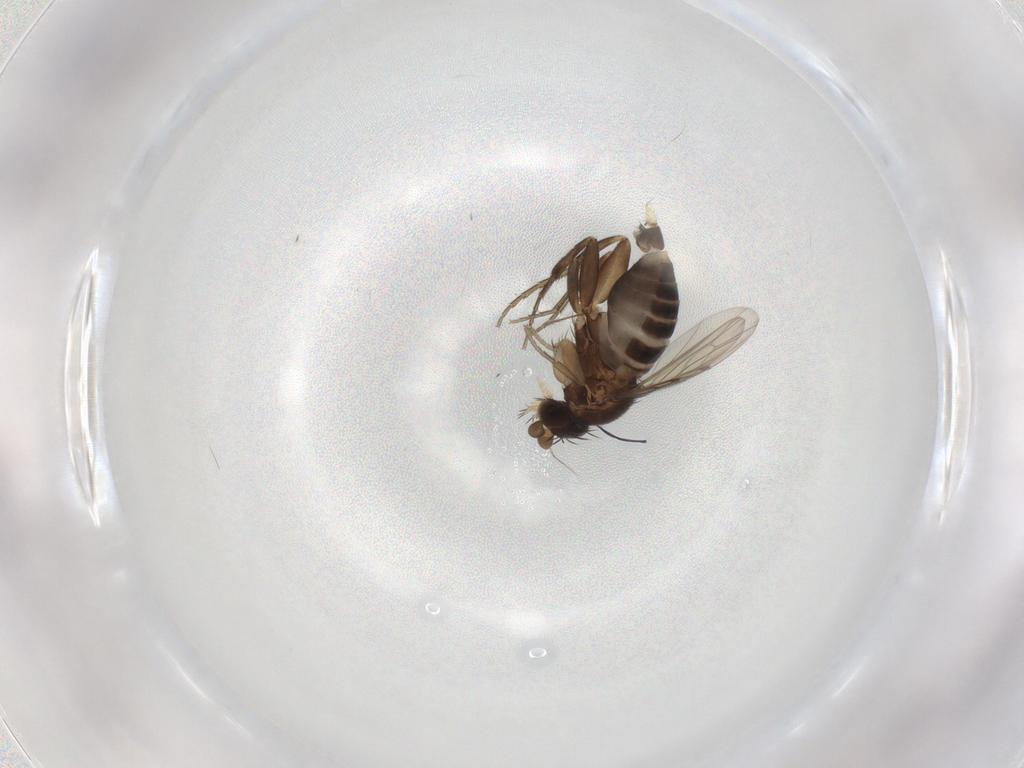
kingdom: Animalia
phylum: Arthropoda
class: Insecta
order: Diptera
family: Phoridae
